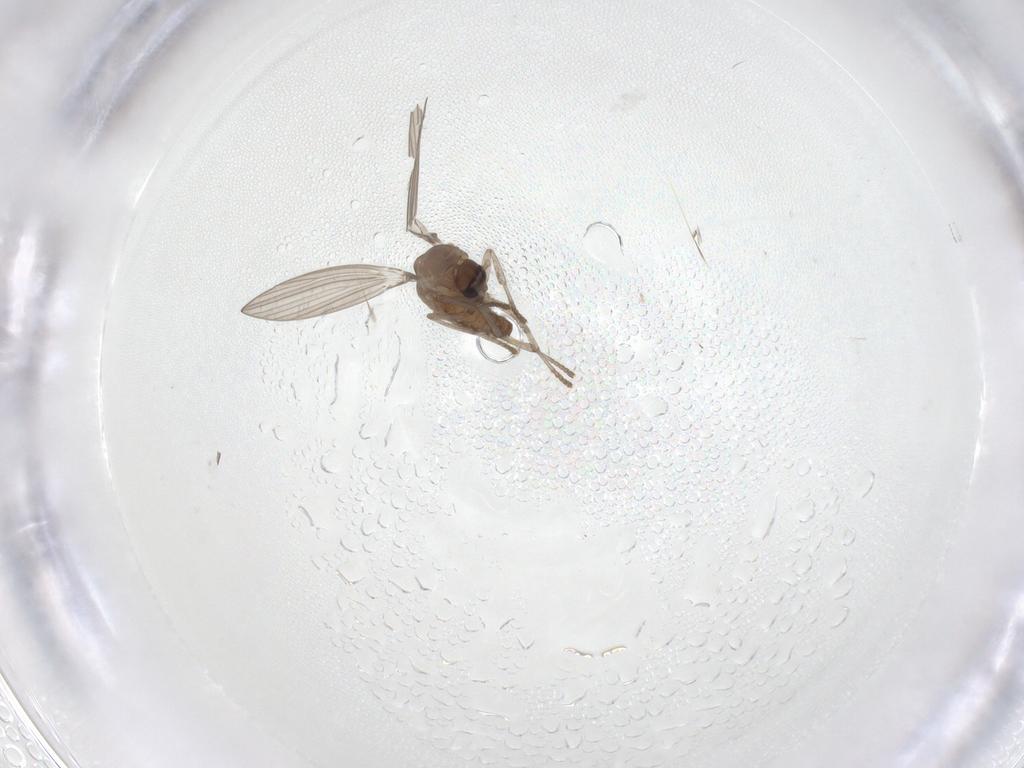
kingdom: Animalia
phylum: Arthropoda
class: Insecta
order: Diptera
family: Psychodidae
